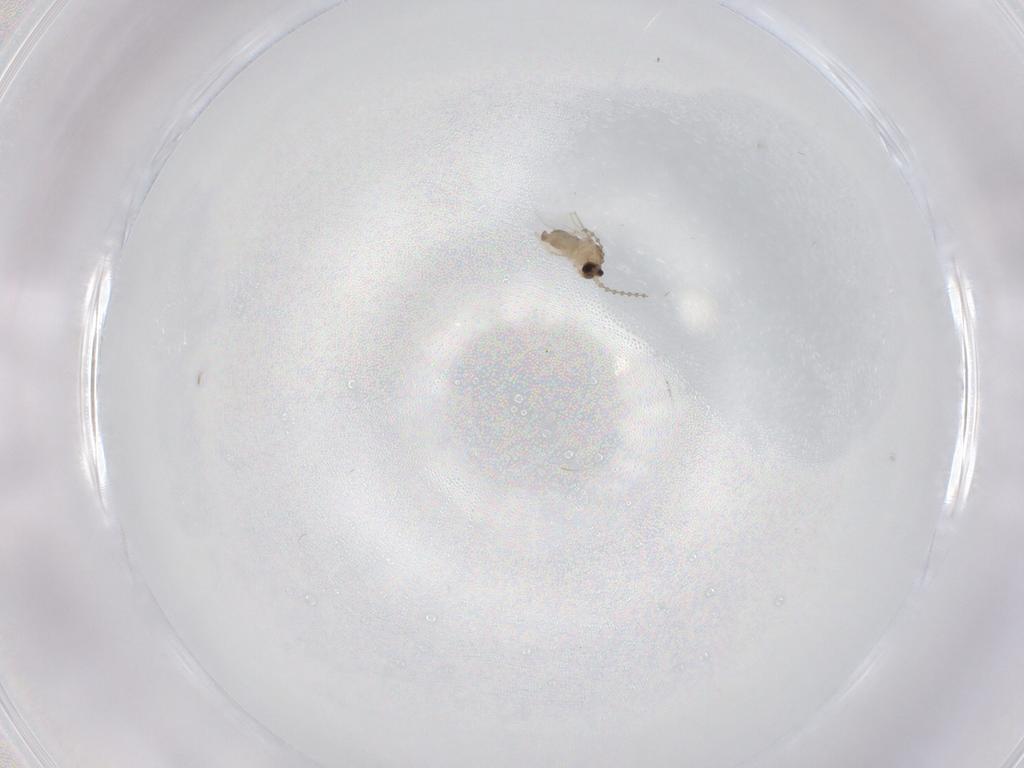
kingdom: Animalia
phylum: Arthropoda
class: Insecta
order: Diptera
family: Cecidomyiidae
